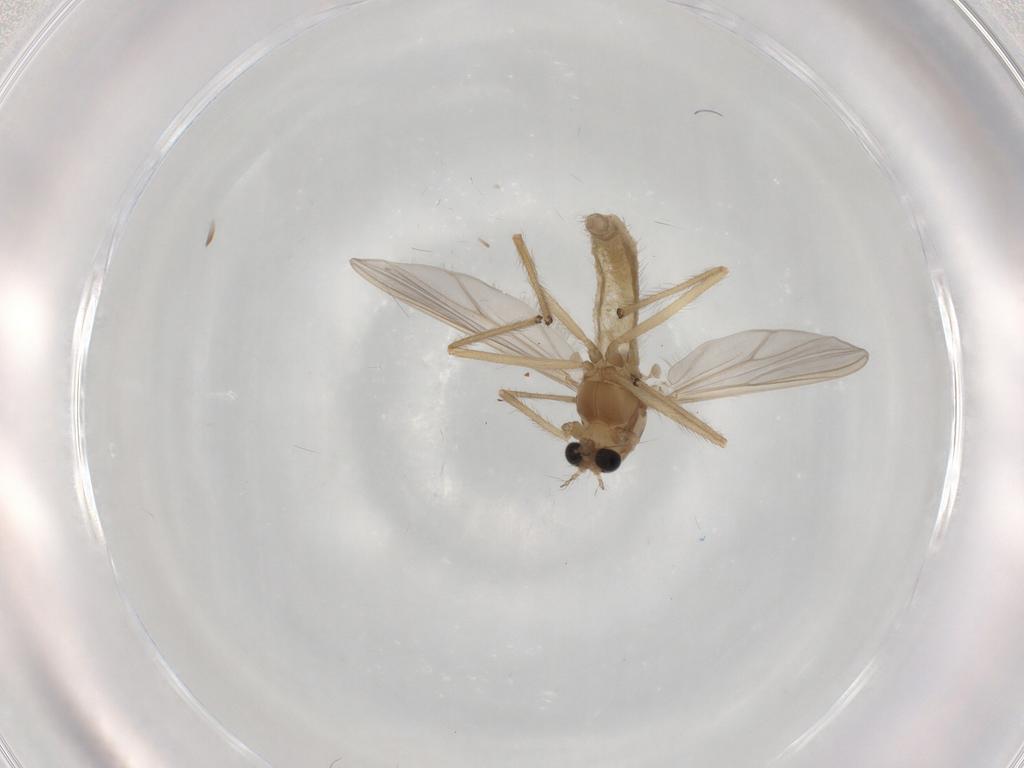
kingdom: Animalia
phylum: Arthropoda
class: Insecta
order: Diptera
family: Chironomidae
